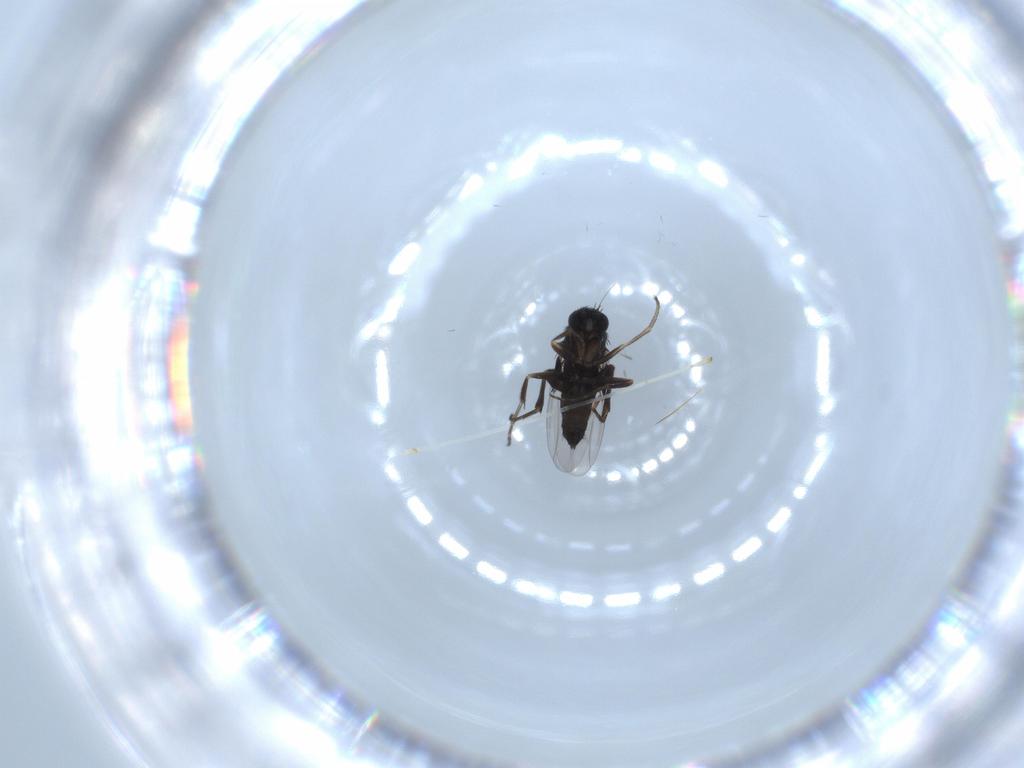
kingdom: Animalia
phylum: Arthropoda
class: Insecta
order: Diptera
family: Phoridae
